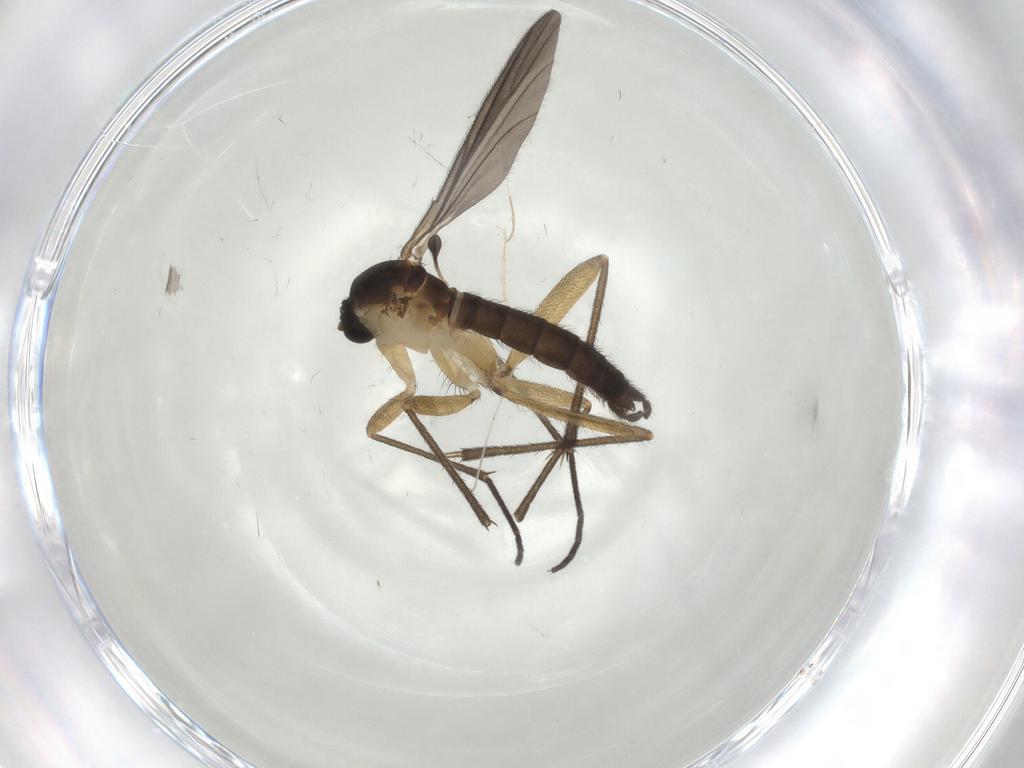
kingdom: Animalia
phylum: Arthropoda
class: Insecta
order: Diptera
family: Sciaridae
